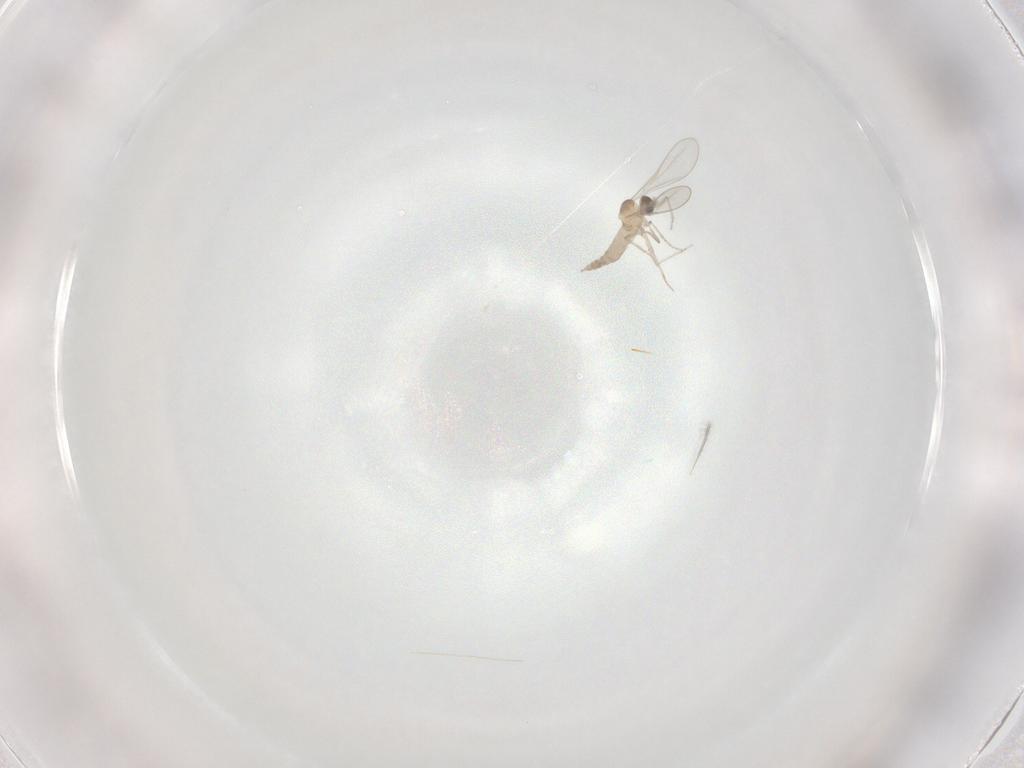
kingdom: Animalia
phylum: Arthropoda
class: Insecta
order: Diptera
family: Cecidomyiidae
